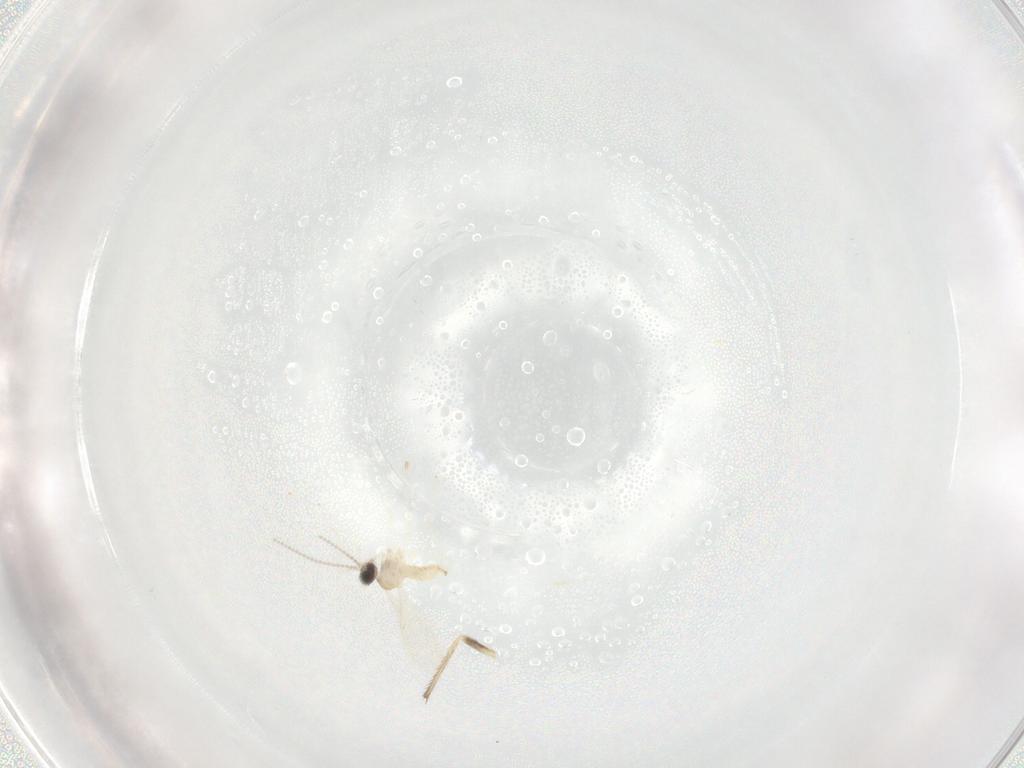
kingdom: Animalia
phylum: Arthropoda
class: Insecta
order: Diptera
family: Cecidomyiidae
